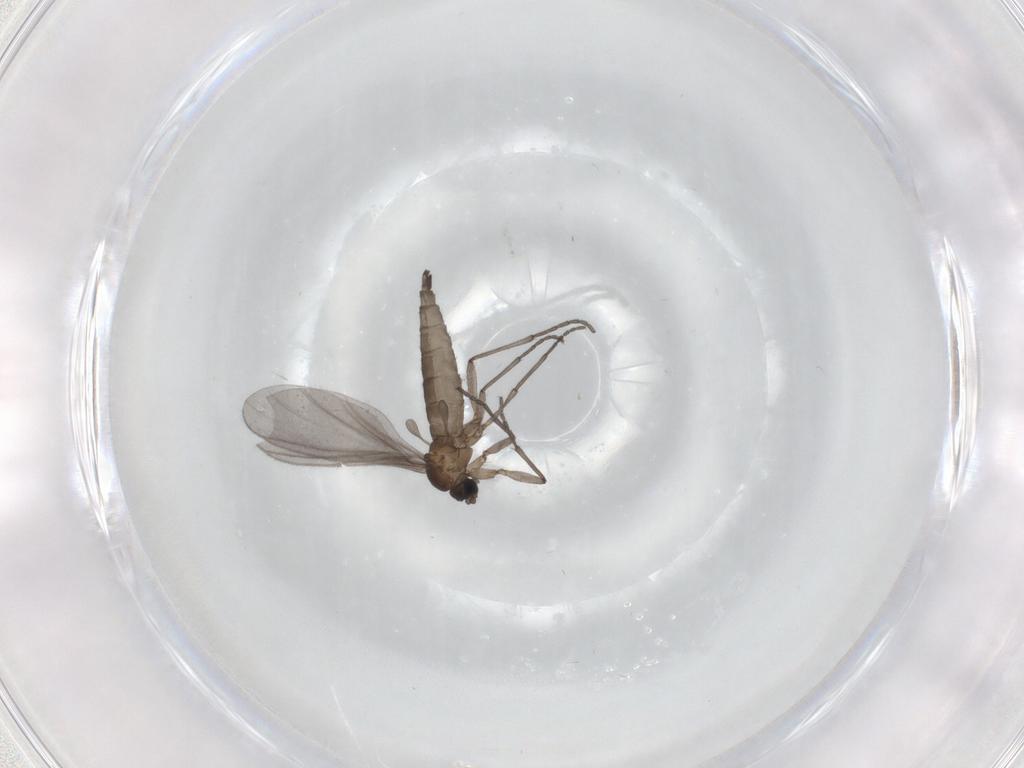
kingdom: Animalia
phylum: Arthropoda
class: Insecta
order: Diptera
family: Sciaridae
